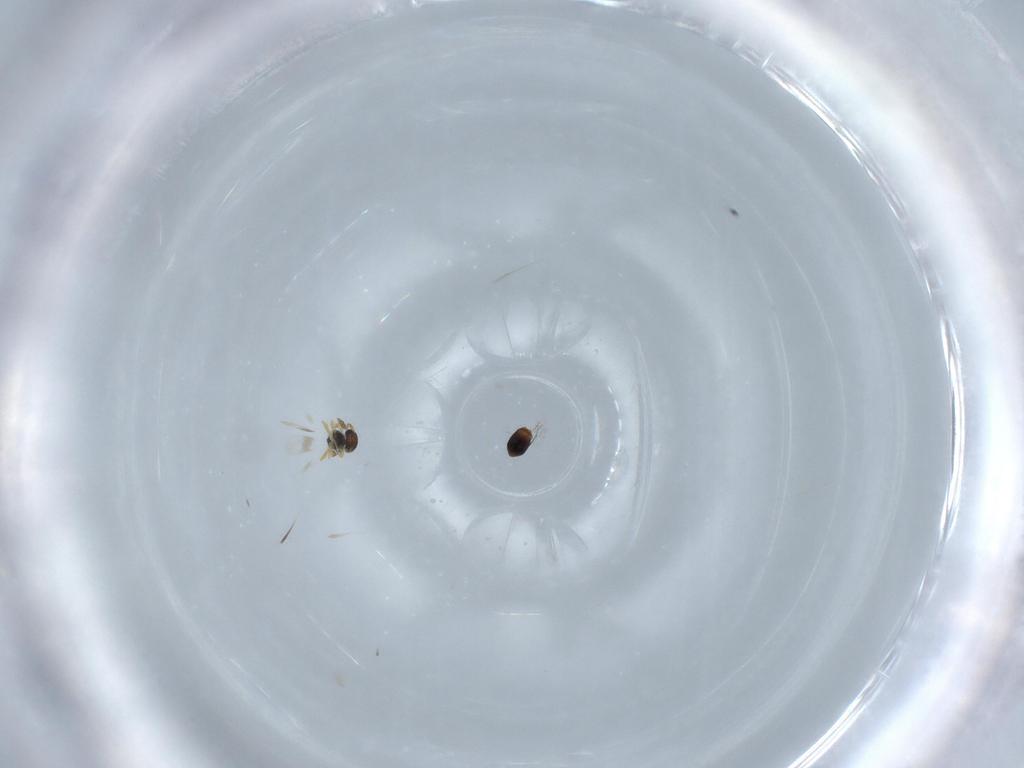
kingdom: Animalia
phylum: Arthropoda
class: Insecta
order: Hymenoptera
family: Platygastridae
